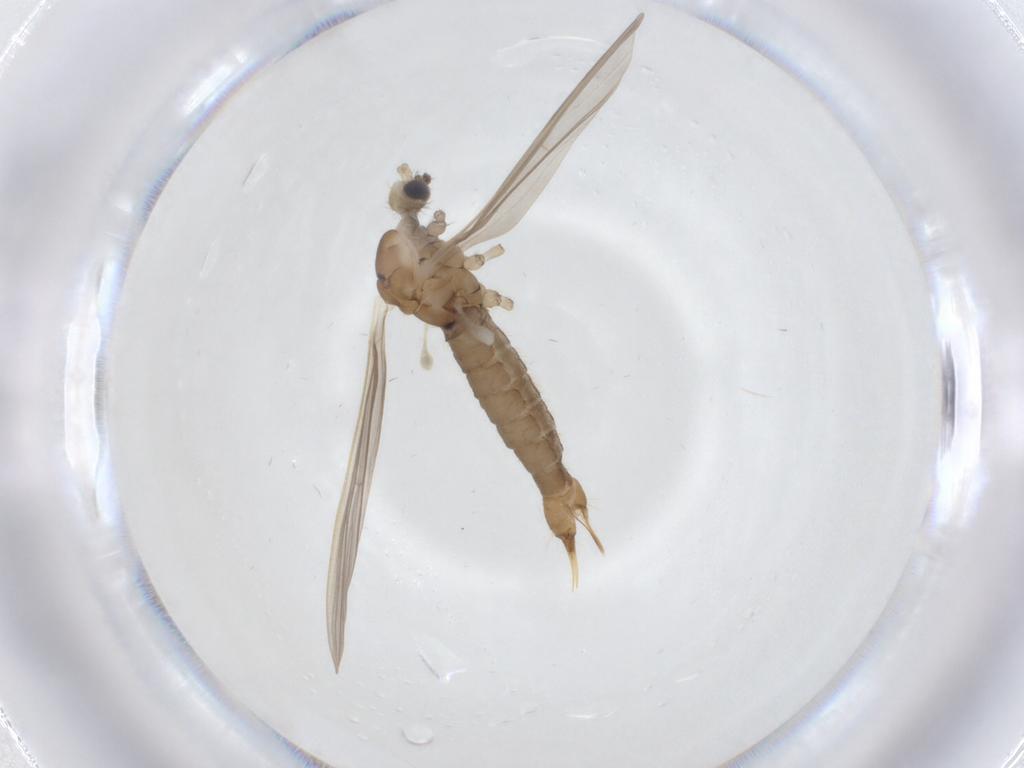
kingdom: Animalia
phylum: Arthropoda
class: Insecta
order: Diptera
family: Limoniidae
